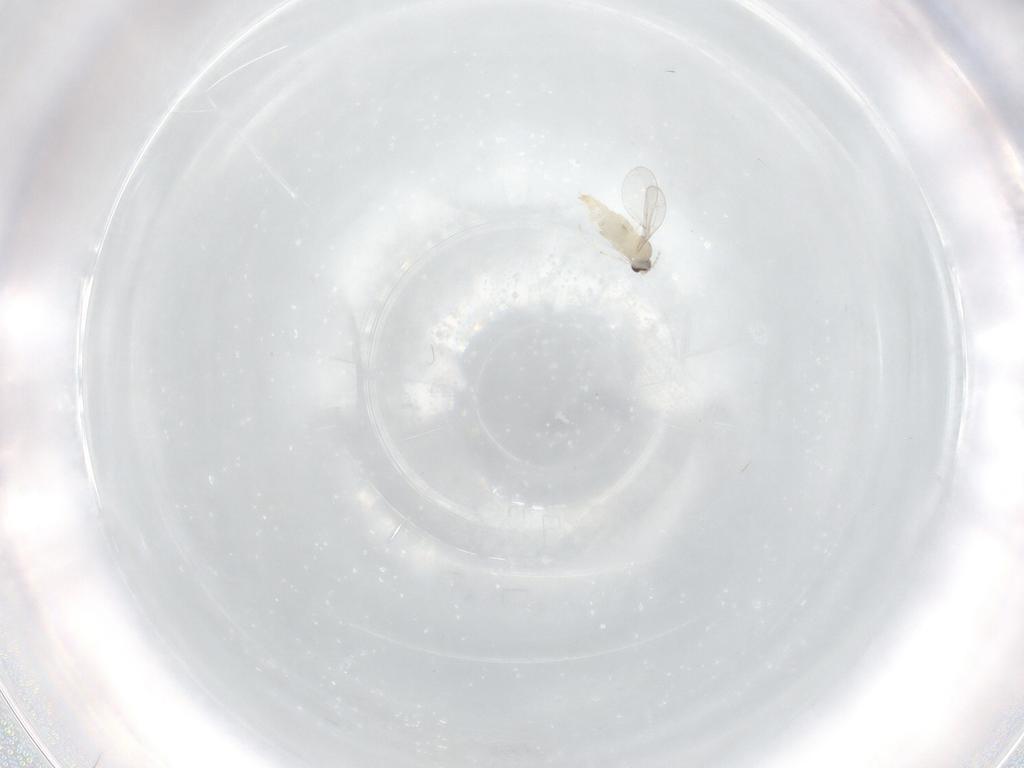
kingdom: Animalia
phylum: Arthropoda
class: Insecta
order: Diptera
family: Cecidomyiidae
